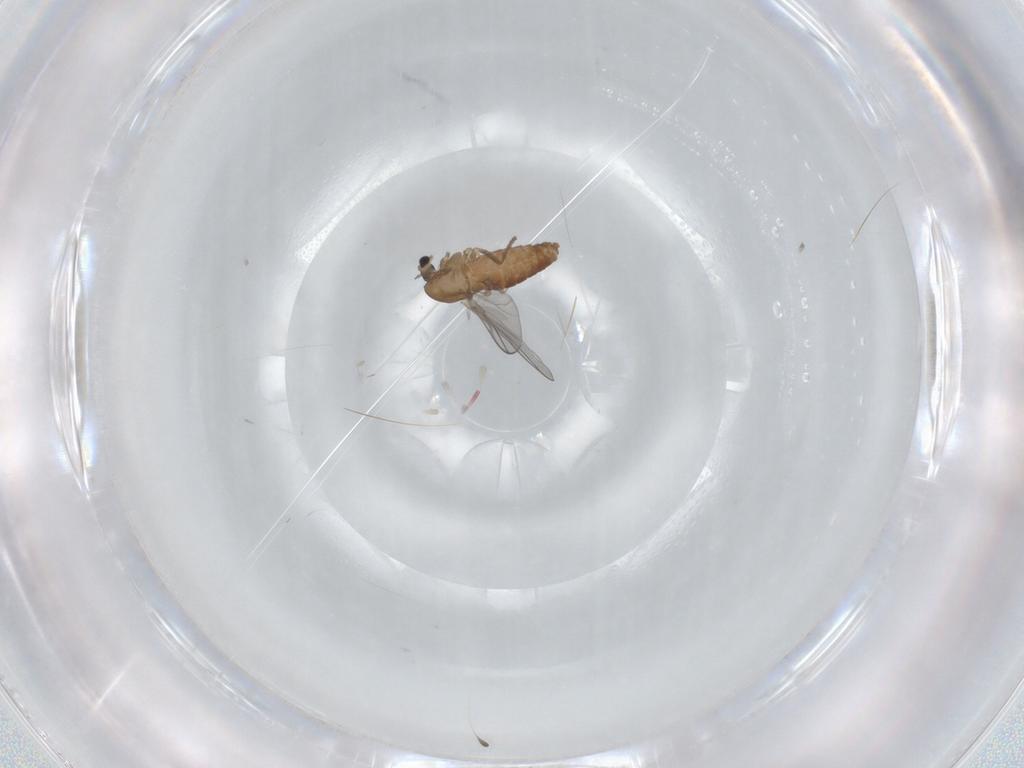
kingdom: Animalia
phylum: Arthropoda
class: Insecta
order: Diptera
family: Chironomidae
